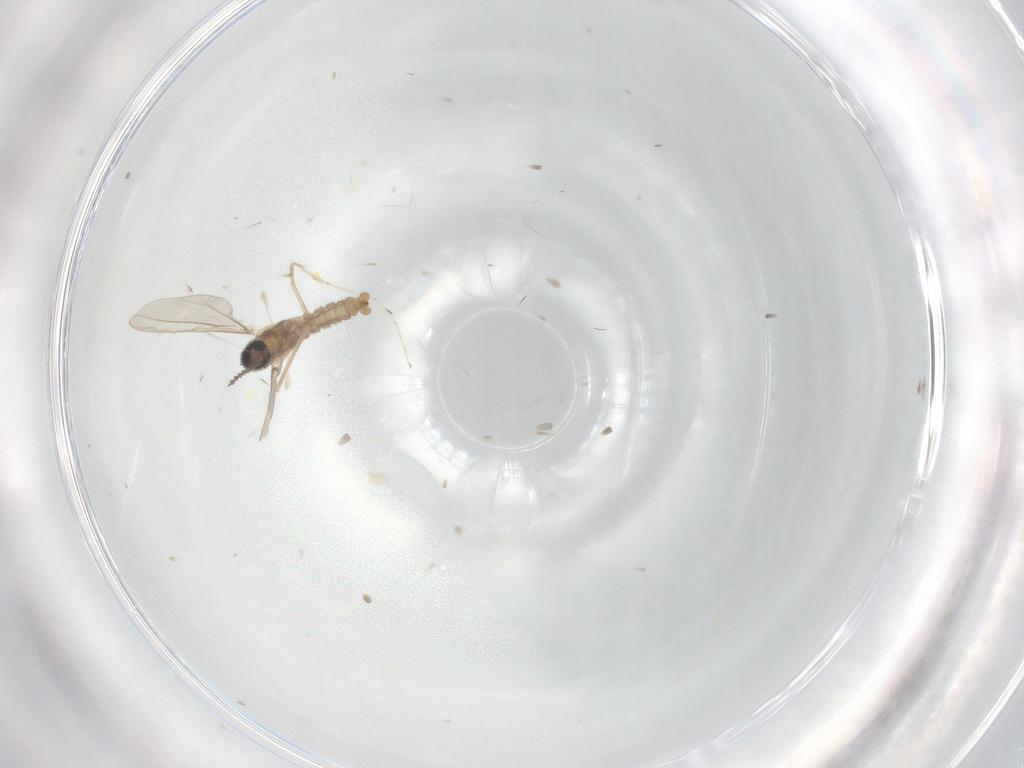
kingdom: Animalia
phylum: Arthropoda
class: Insecta
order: Diptera
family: Cecidomyiidae
